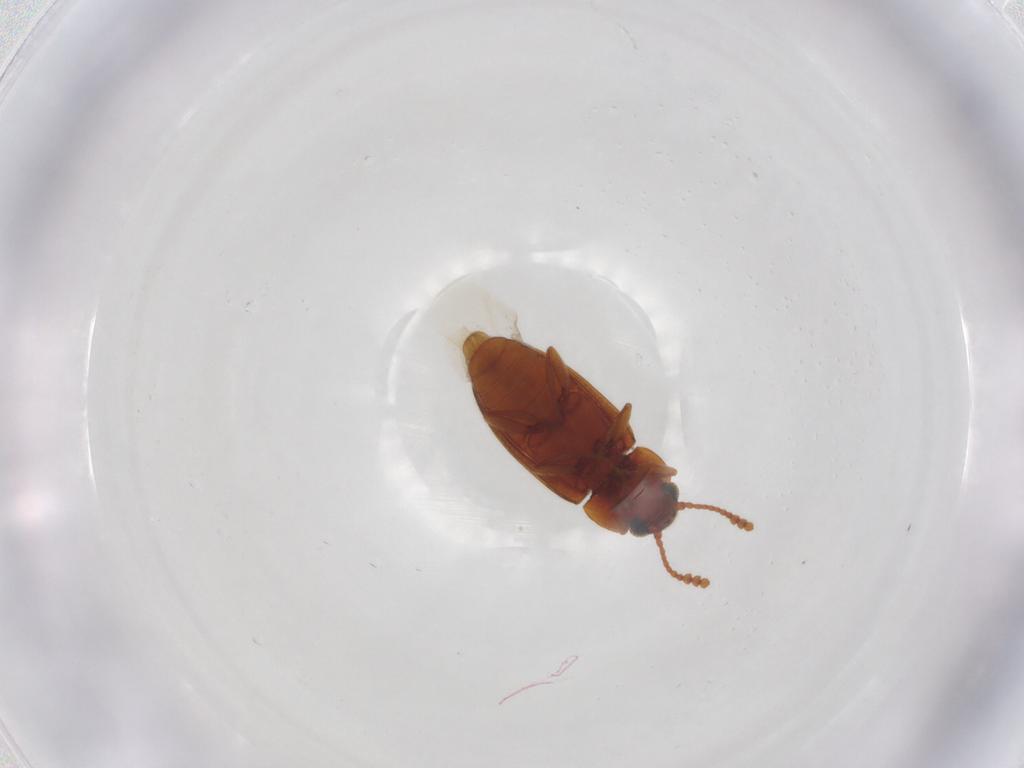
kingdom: Animalia
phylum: Arthropoda
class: Insecta
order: Coleoptera
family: Erotylidae
